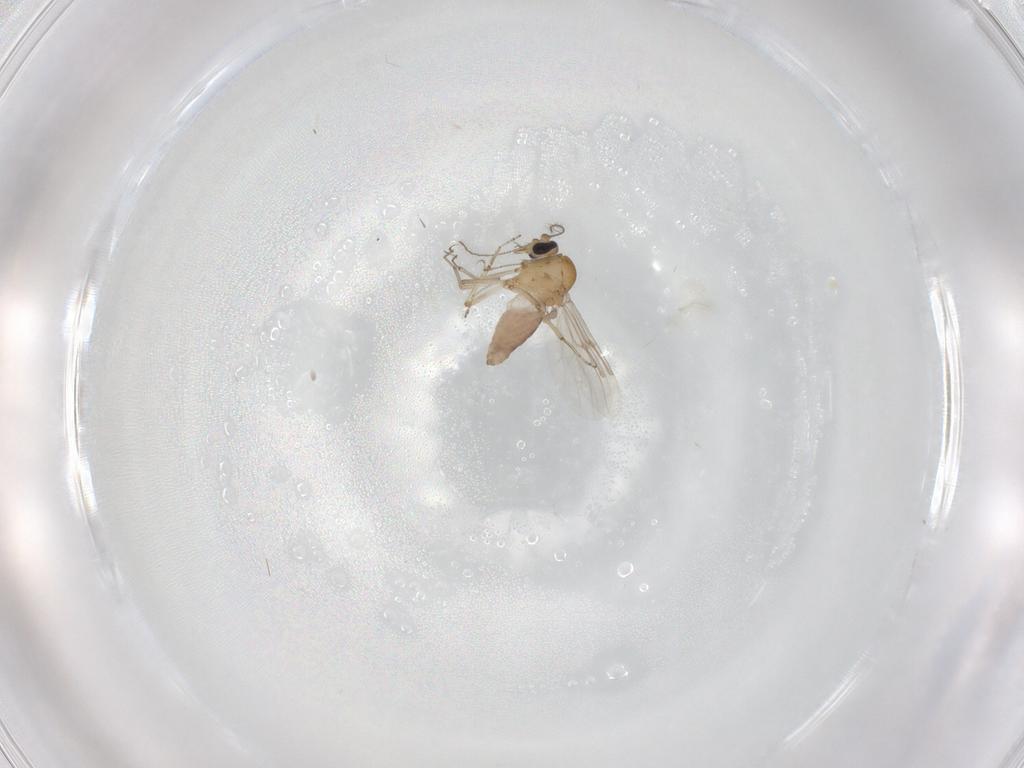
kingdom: Animalia
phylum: Arthropoda
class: Insecta
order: Diptera
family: Ceratopogonidae
